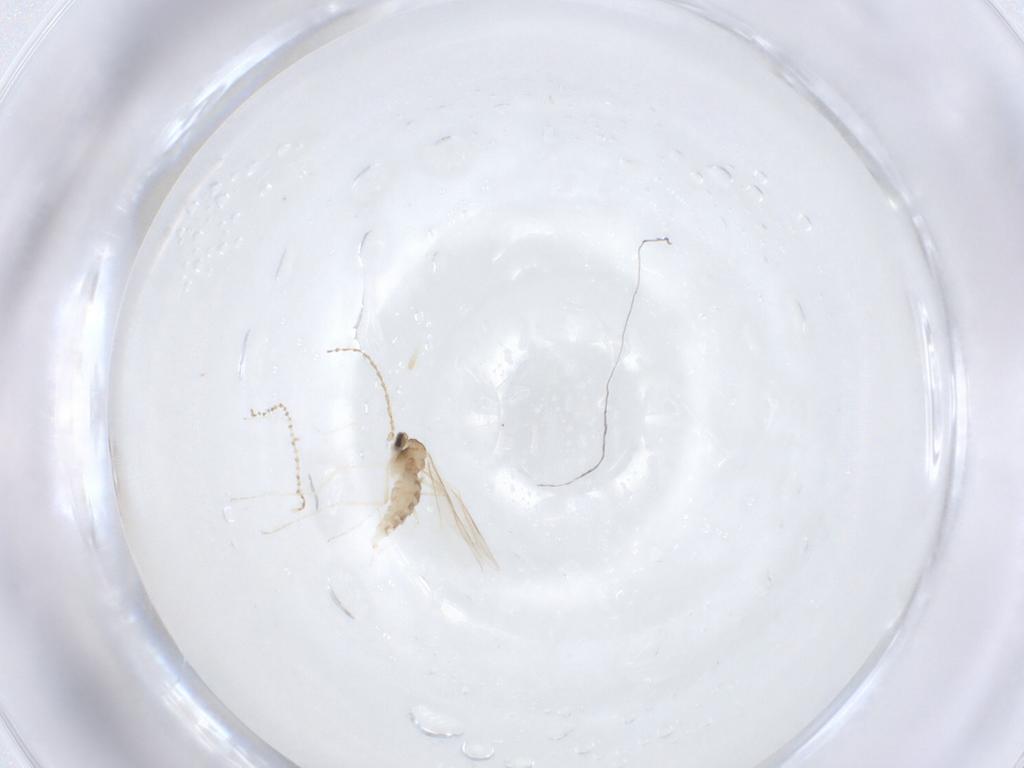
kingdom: Animalia
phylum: Arthropoda
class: Insecta
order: Diptera
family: Cecidomyiidae
